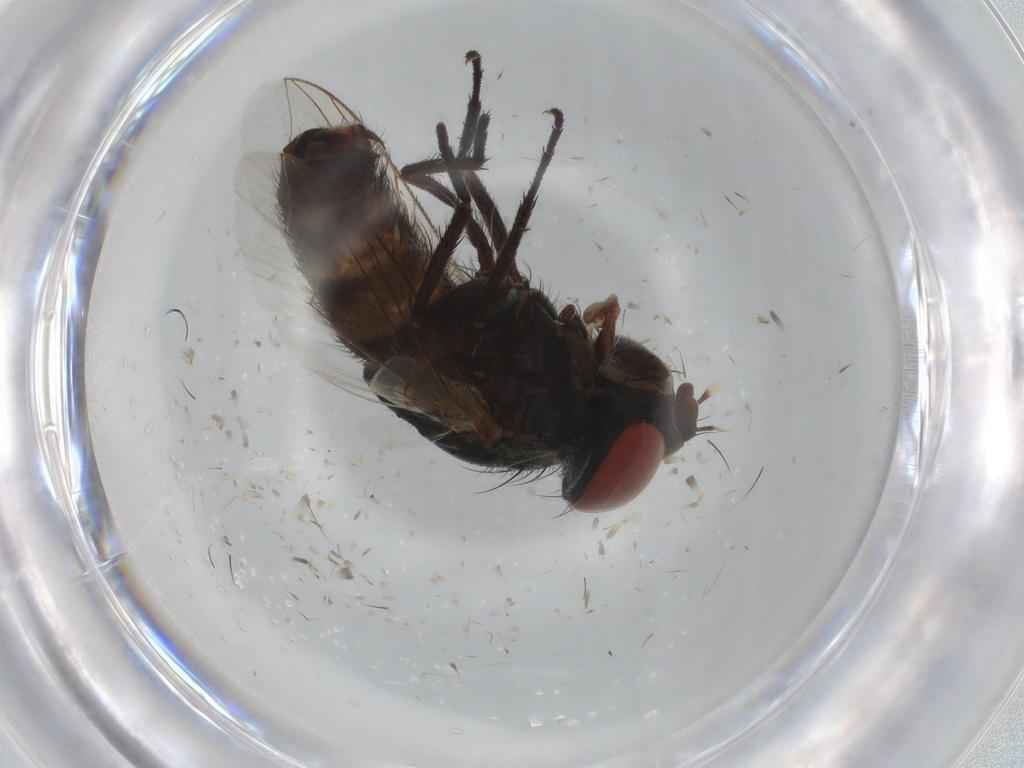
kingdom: Animalia
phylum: Arthropoda
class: Insecta
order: Diptera
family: Sarcophagidae
